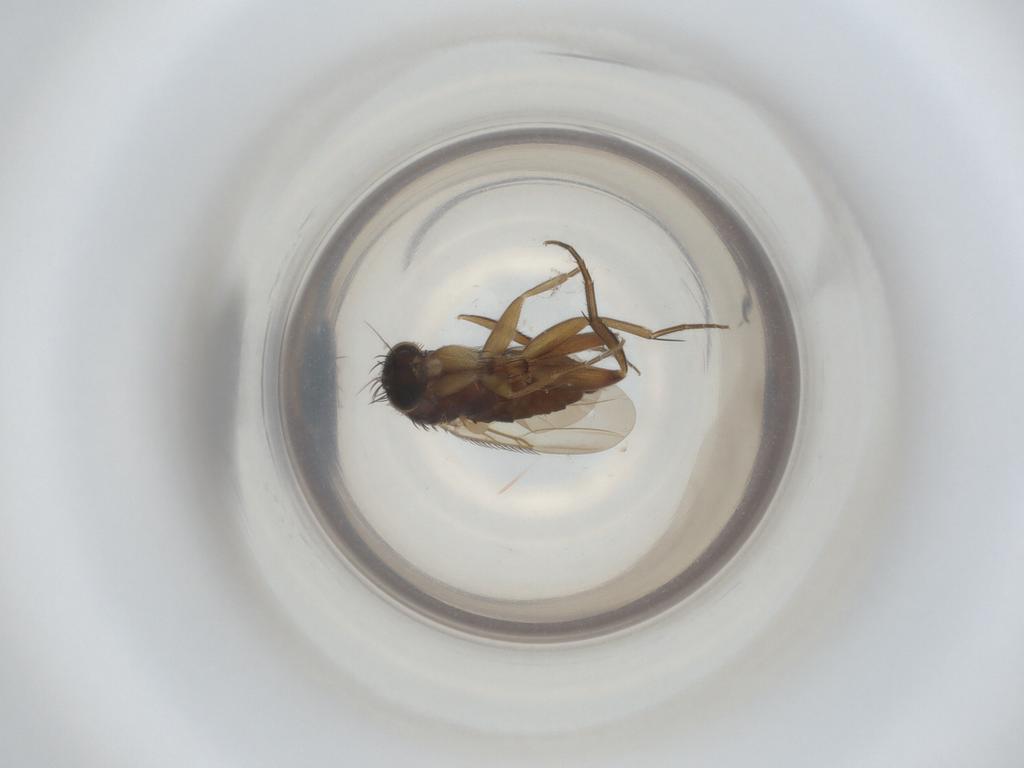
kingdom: Animalia
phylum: Arthropoda
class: Insecta
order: Diptera
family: Phoridae
